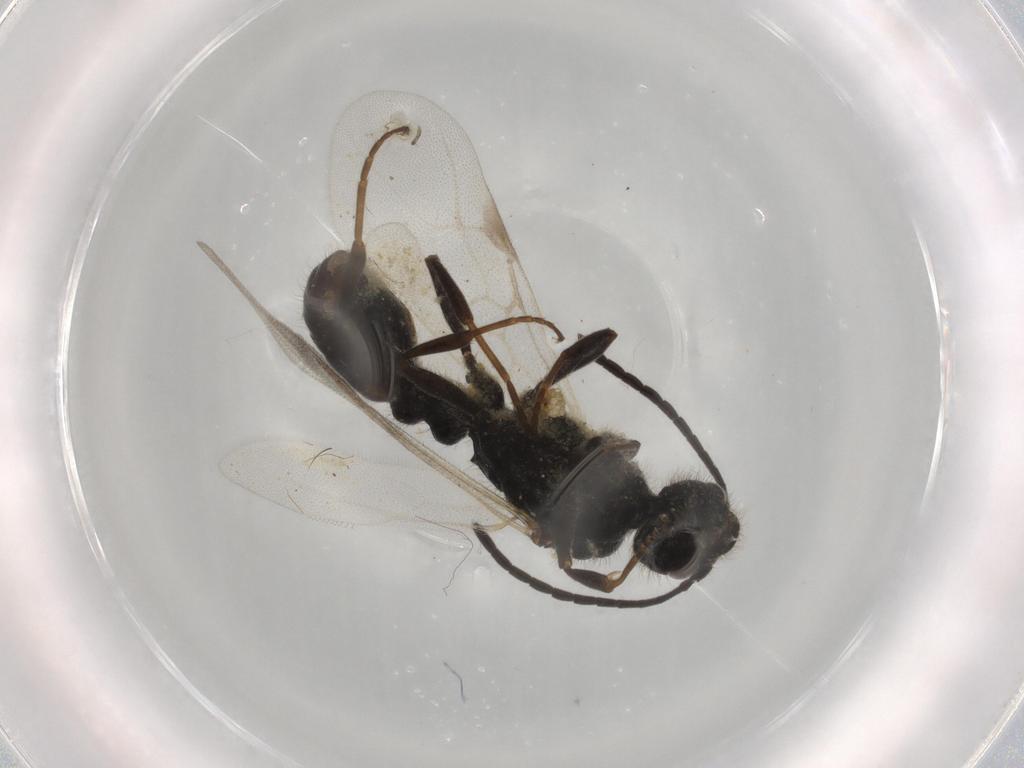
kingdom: Animalia
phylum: Arthropoda
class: Insecta
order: Hymenoptera
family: Formicidae
